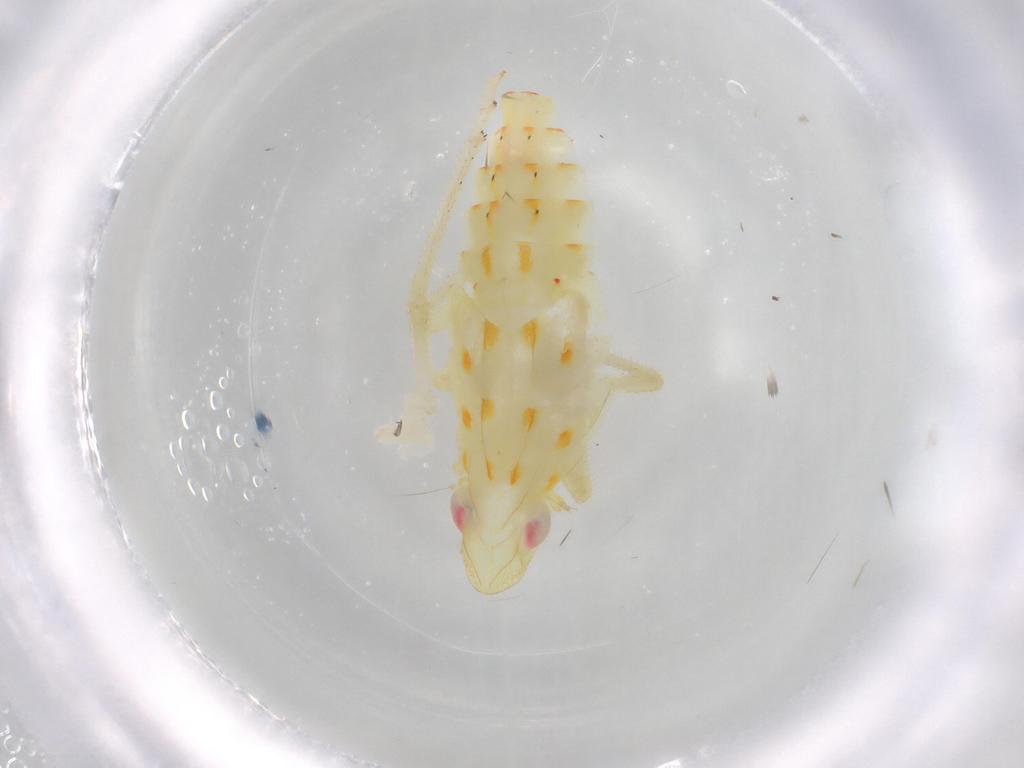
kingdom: Animalia
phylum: Arthropoda
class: Insecta
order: Hemiptera
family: Tropiduchidae
